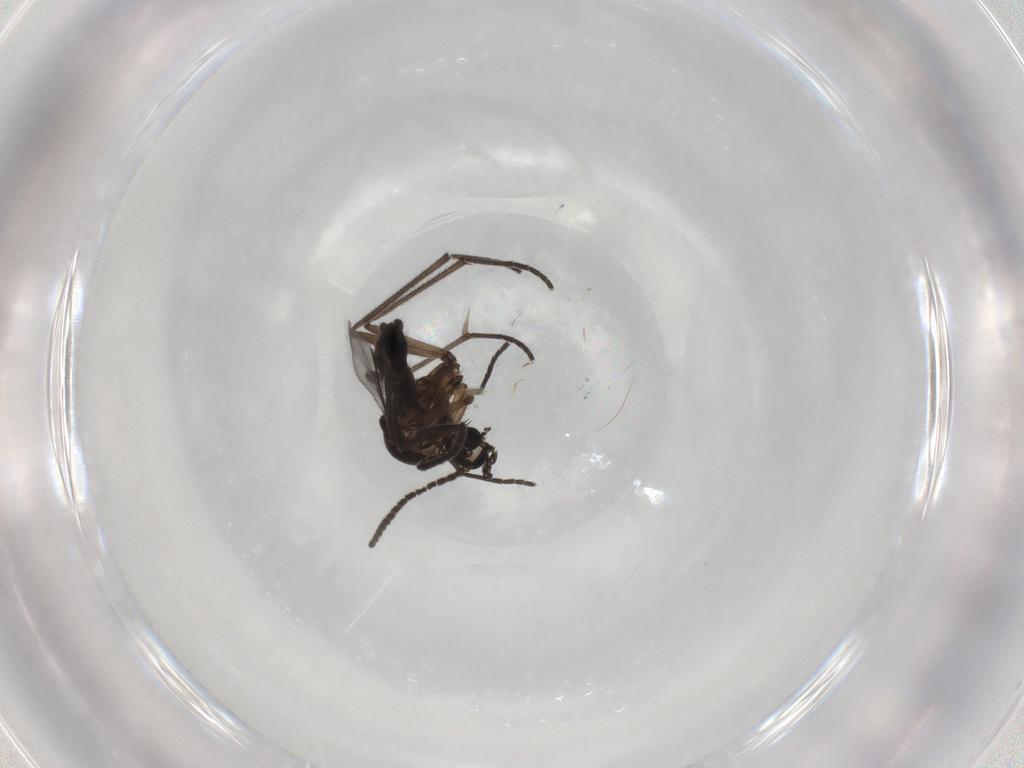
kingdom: Animalia
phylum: Arthropoda
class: Insecta
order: Diptera
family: Sciaridae
